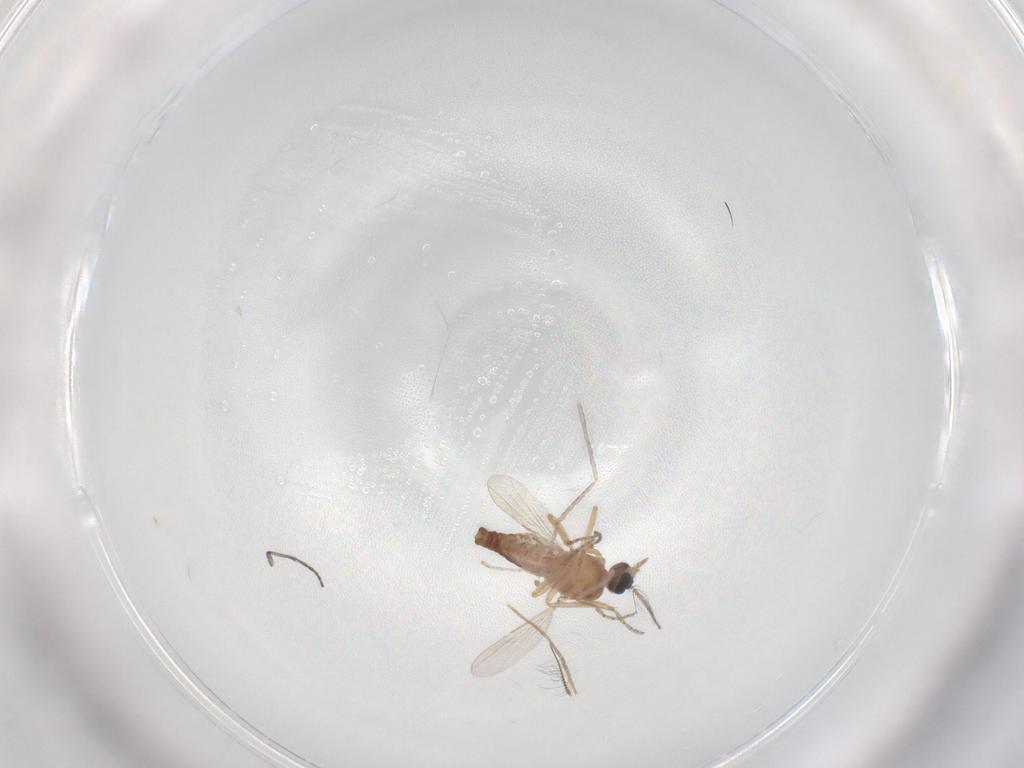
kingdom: Animalia
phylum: Arthropoda
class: Insecta
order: Diptera
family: Ceratopogonidae
